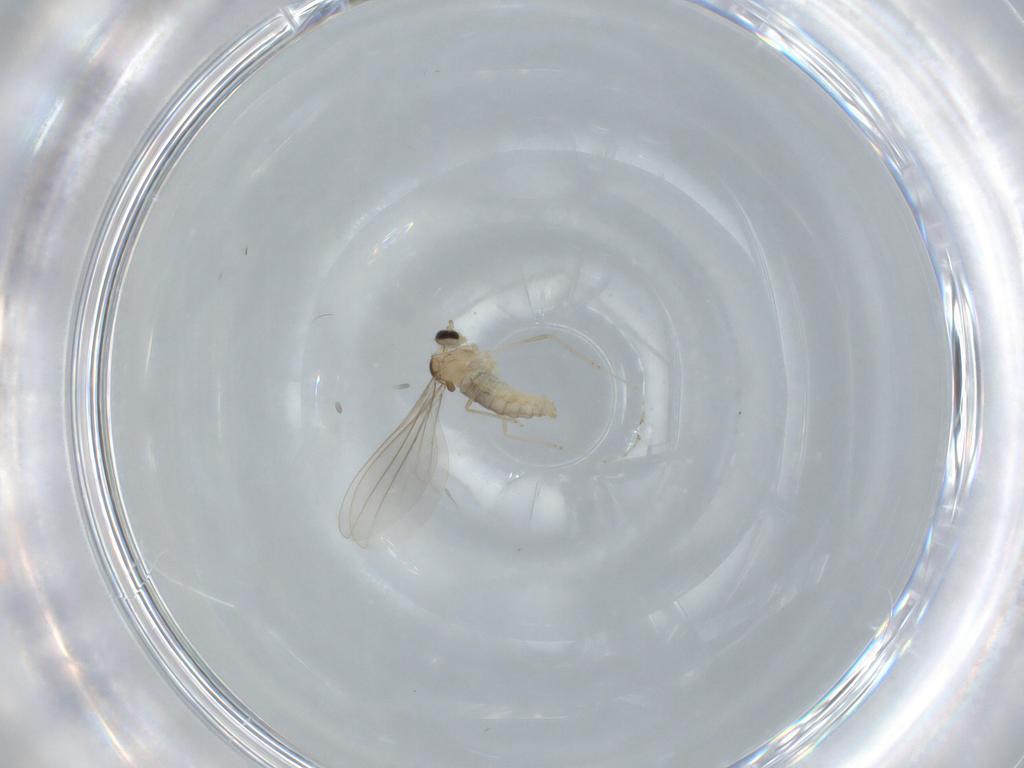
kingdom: Animalia
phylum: Arthropoda
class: Insecta
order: Diptera
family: Cecidomyiidae
